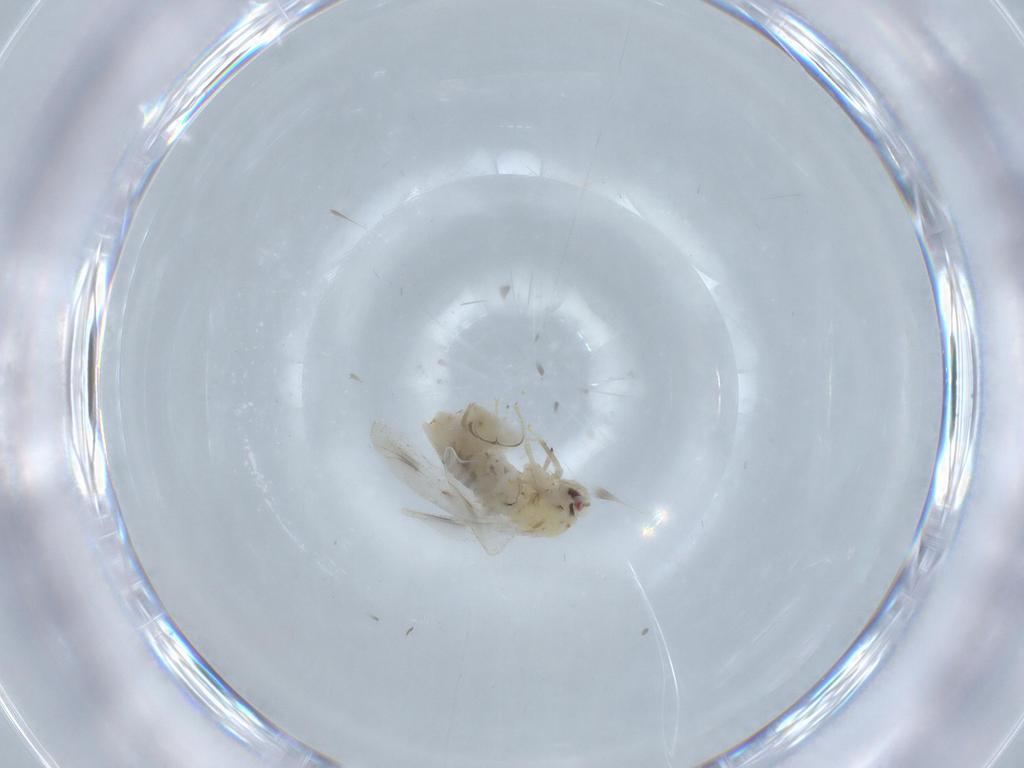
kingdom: Animalia
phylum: Arthropoda
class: Insecta
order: Hemiptera
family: Aleyrodidae
